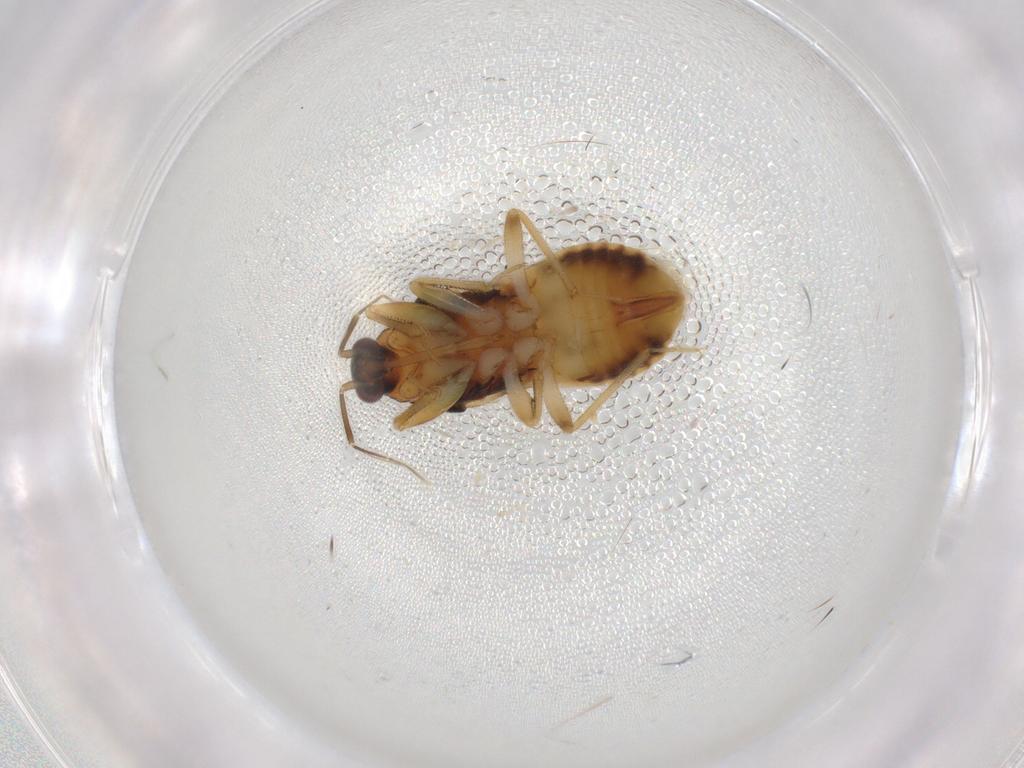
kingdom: Animalia
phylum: Arthropoda
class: Insecta
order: Hemiptera
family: Nabidae
